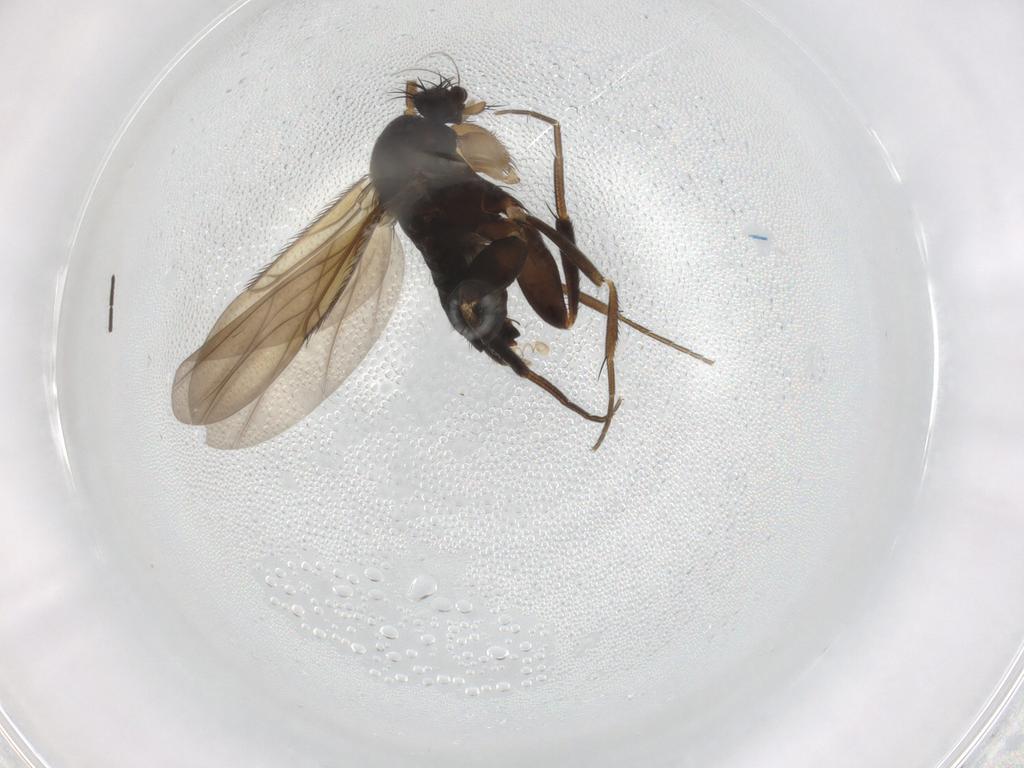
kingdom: Animalia
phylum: Arthropoda
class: Insecta
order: Diptera
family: Phoridae
